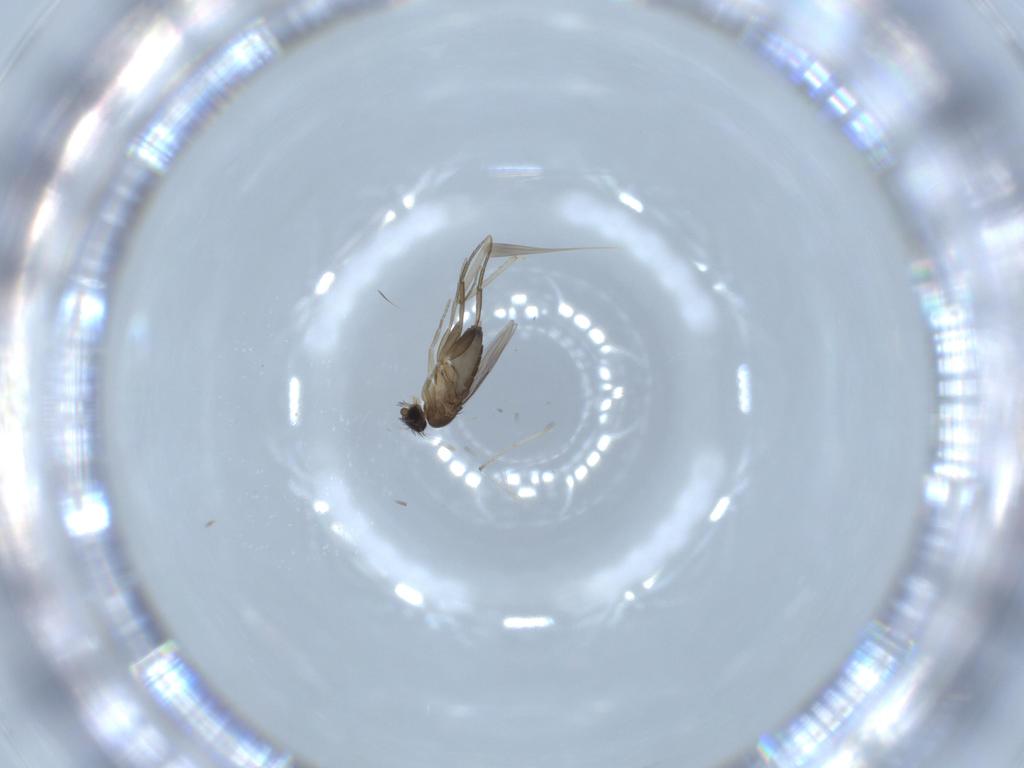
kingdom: Animalia
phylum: Arthropoda
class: Insecta
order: Diptera
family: Phoridae
